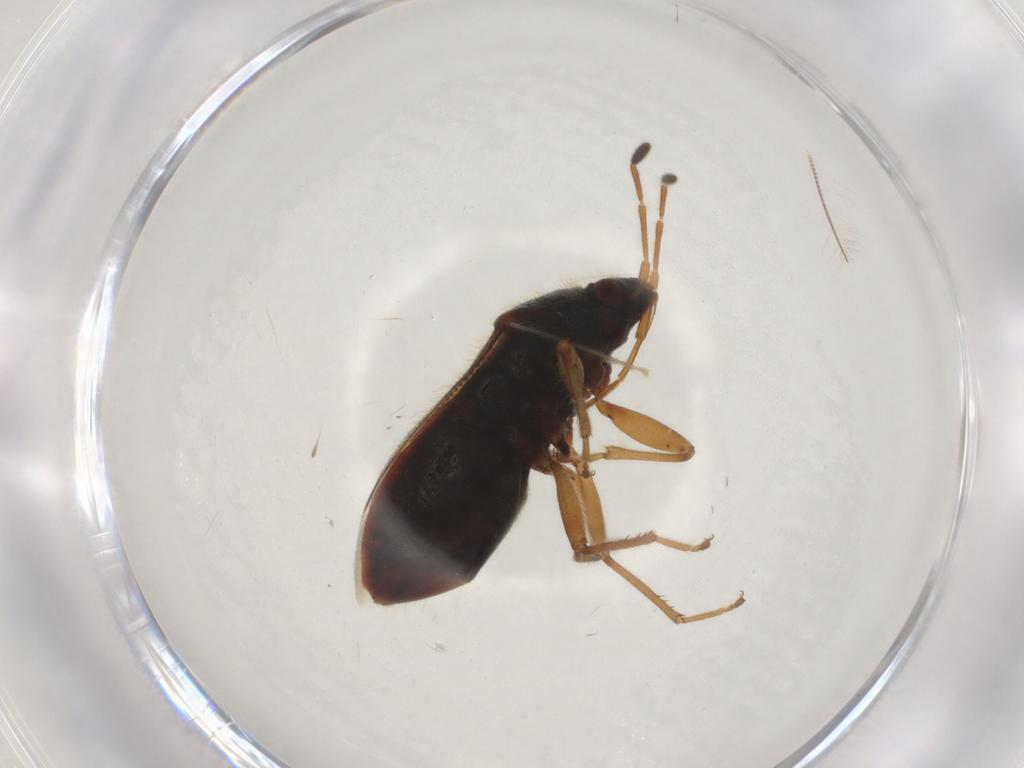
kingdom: Animalia
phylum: Arthropoda
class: Insecta
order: Hemiptera
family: Rhyparochromidae
